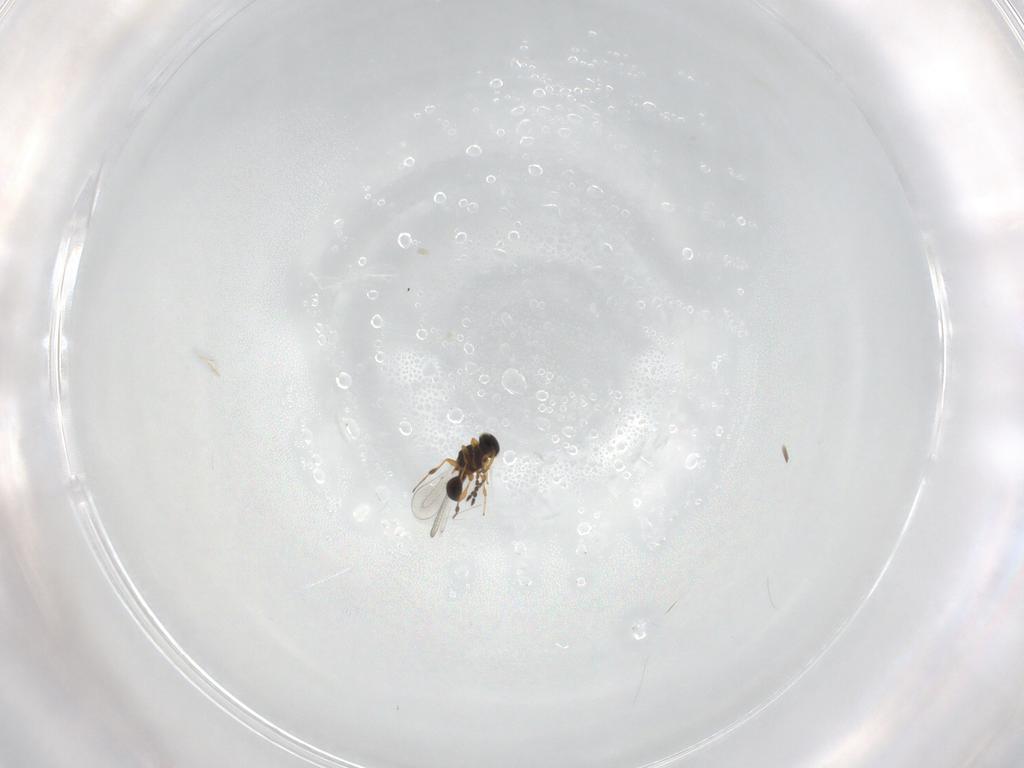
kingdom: Animalia
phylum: Arthropoda
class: Insecta
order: Hymenoptera
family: Platygastridae
